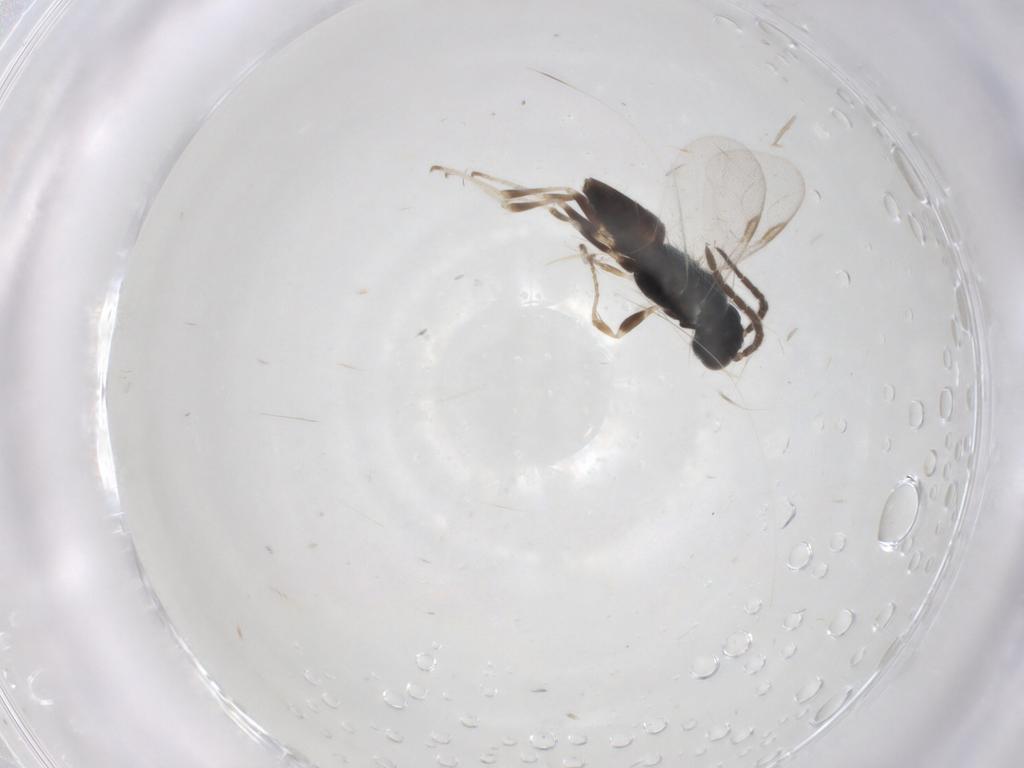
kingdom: Animalia
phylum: Arthropoda
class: Insecta
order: Hymenoptera
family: Dryinidae
